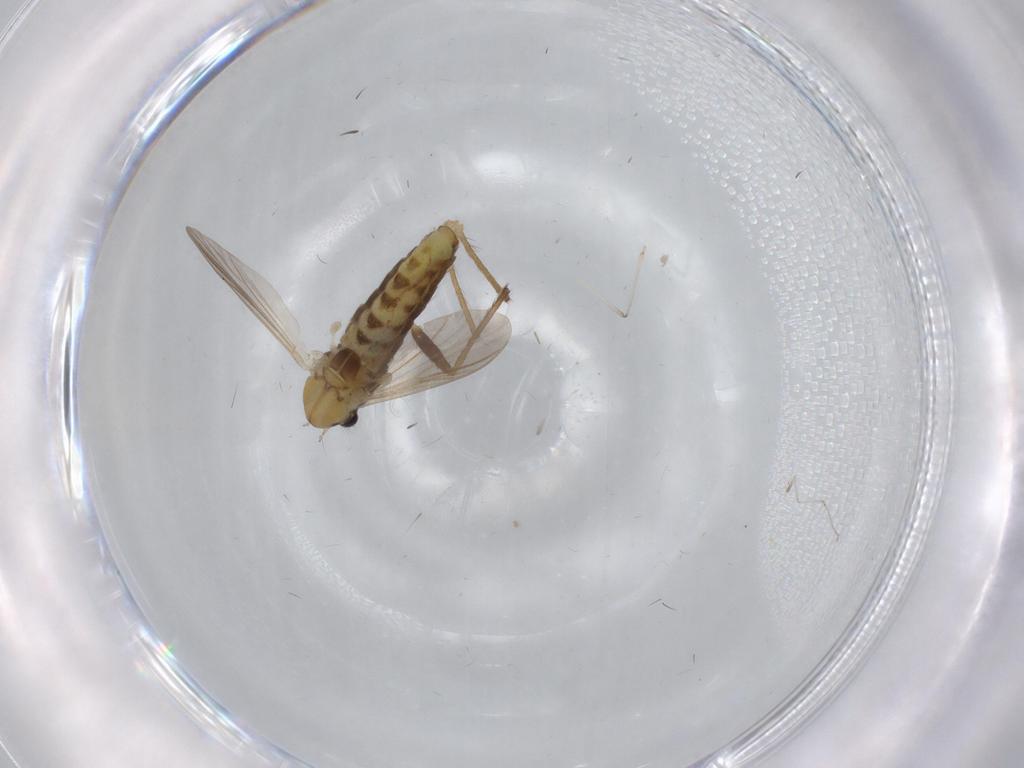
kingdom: Animalia
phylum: Arthropoda
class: Insecta
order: Diptera
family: Chironomidae
